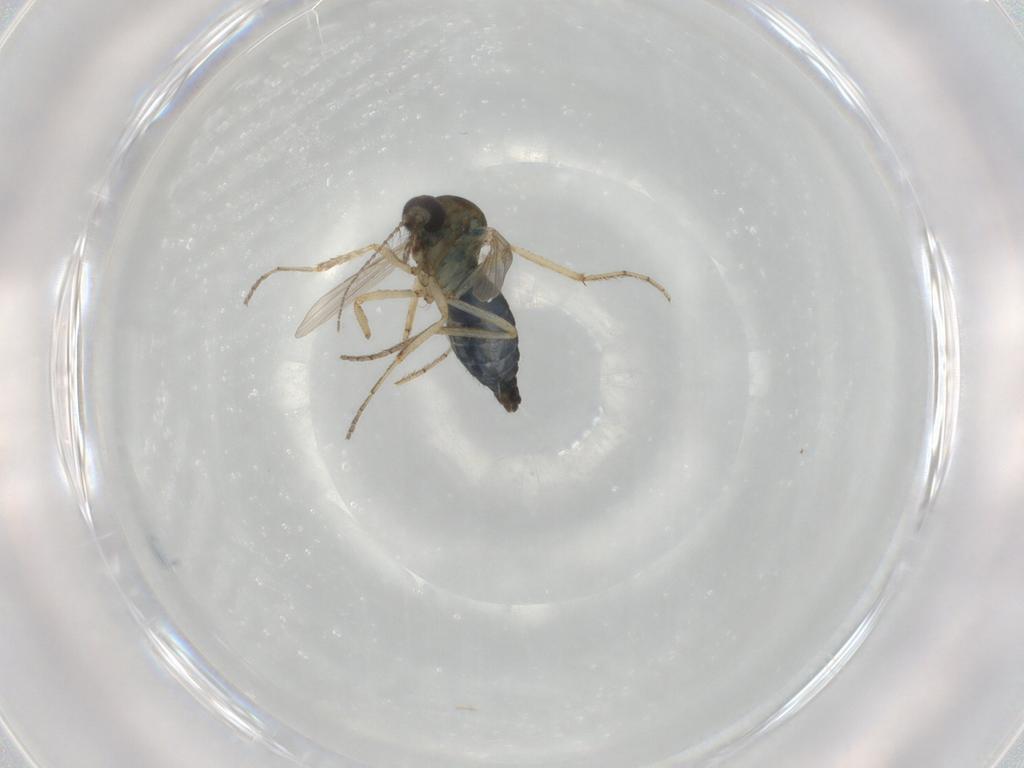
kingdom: Animalia
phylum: Arthropoda
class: Insecta
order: Diptera
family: Ceratopogonidae
